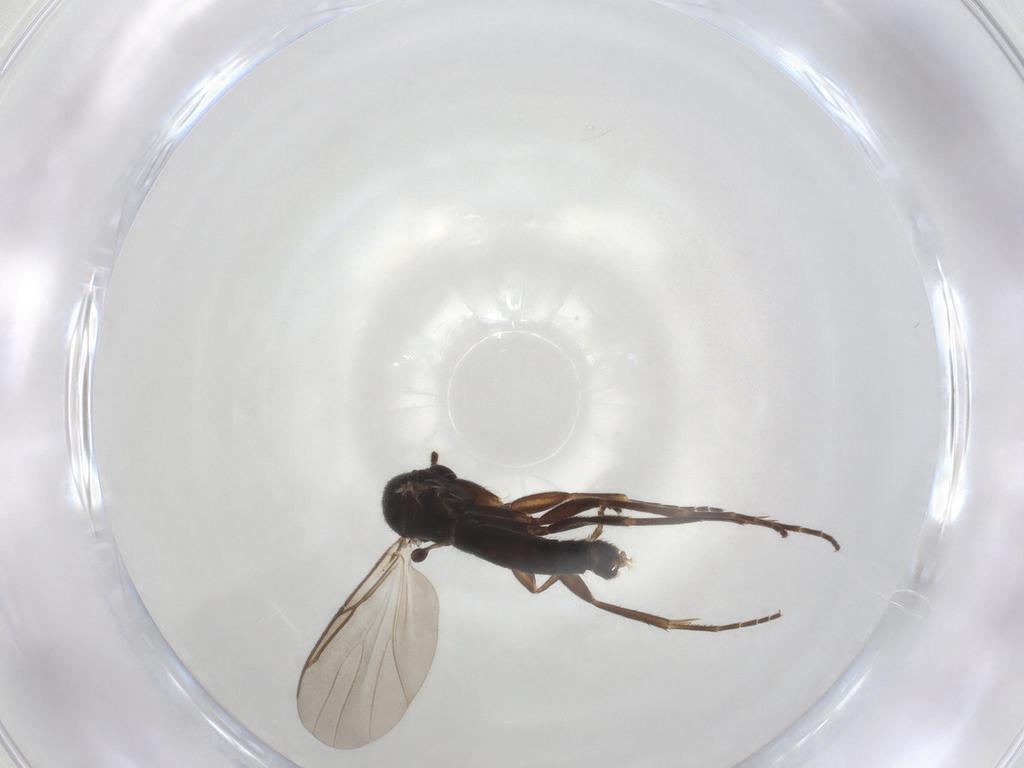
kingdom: Animalia
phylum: Arthropoda
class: Insecta
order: Diptera
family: Mycetophilidae
